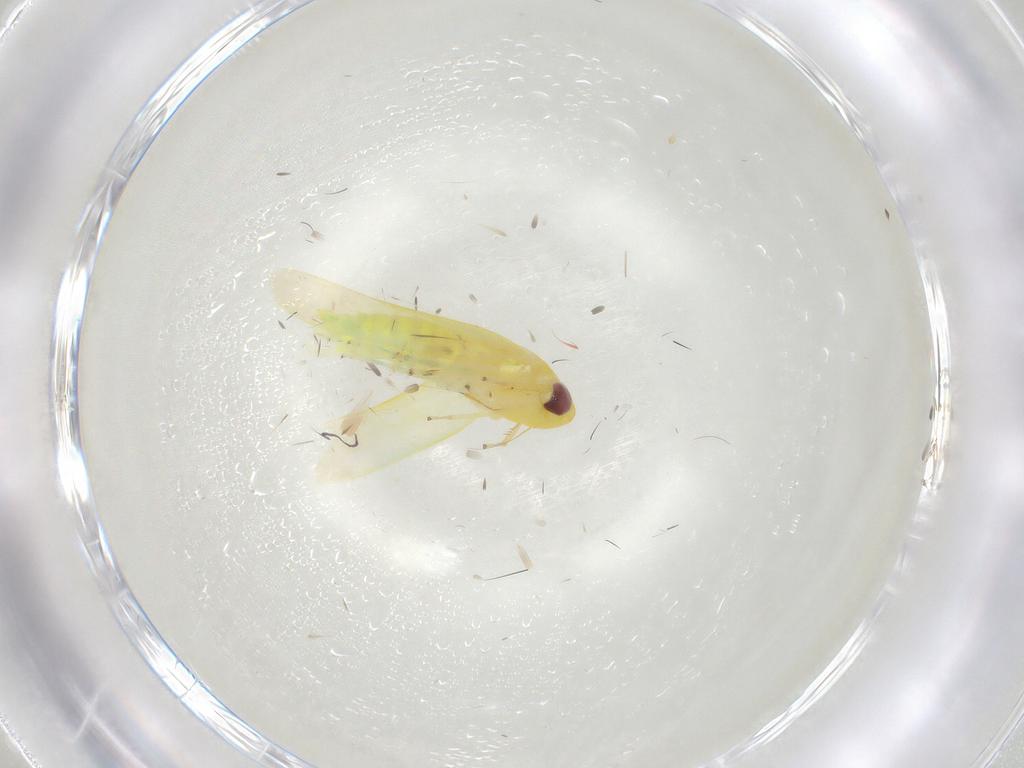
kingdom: Animalia
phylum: Arthropoda
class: Insecta
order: Hemiptera
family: Cicadellidae
